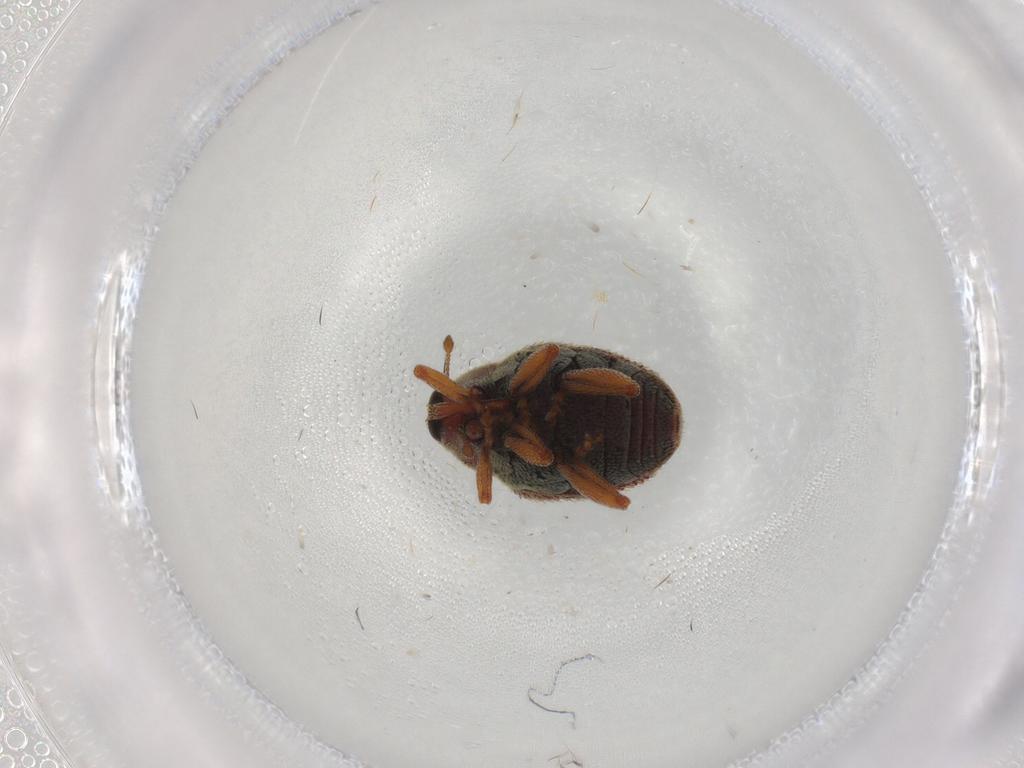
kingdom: Animalia
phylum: Arthropoda
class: Insecta
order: Coleoptera
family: Curculionidae
